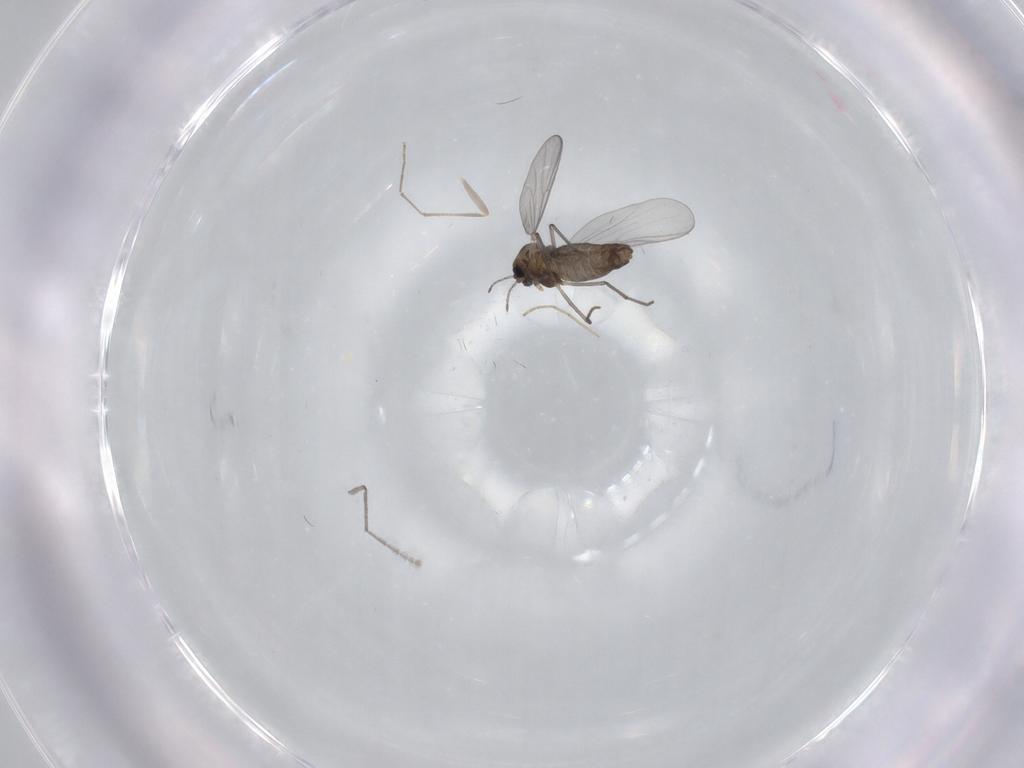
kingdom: Animalia
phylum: Arthropoda
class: Insecta
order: Diptera
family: Chironomidae
